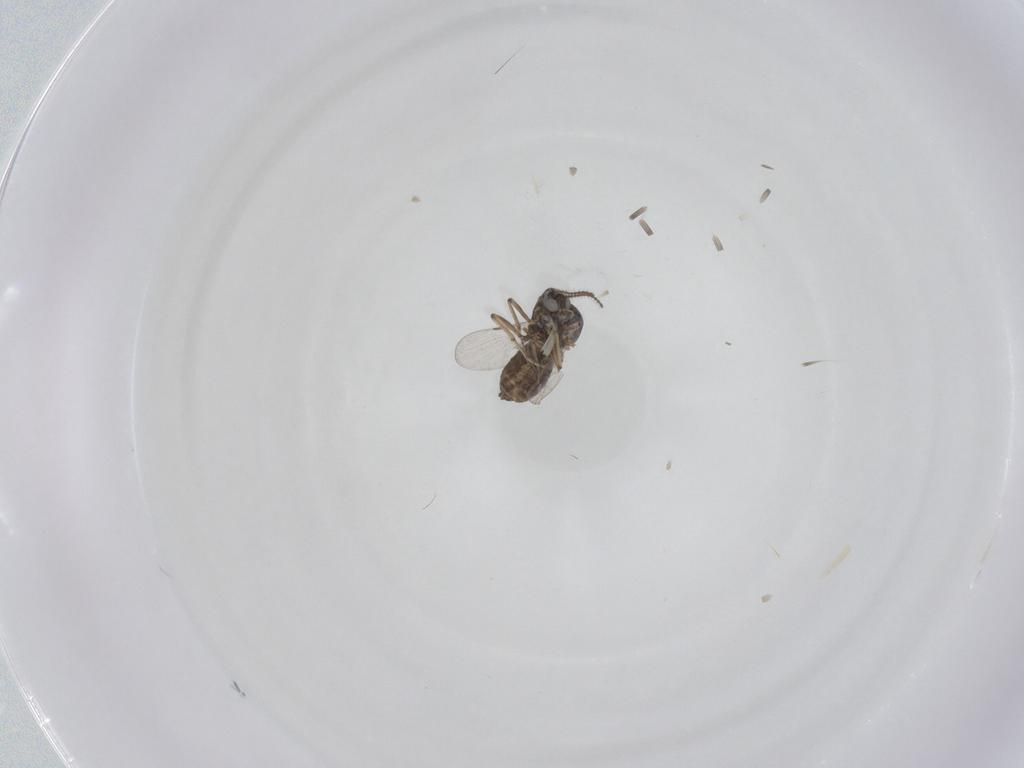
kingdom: Animalia
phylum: Arthropoda
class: Insecta
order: Diptera
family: Ceratopogonidae
